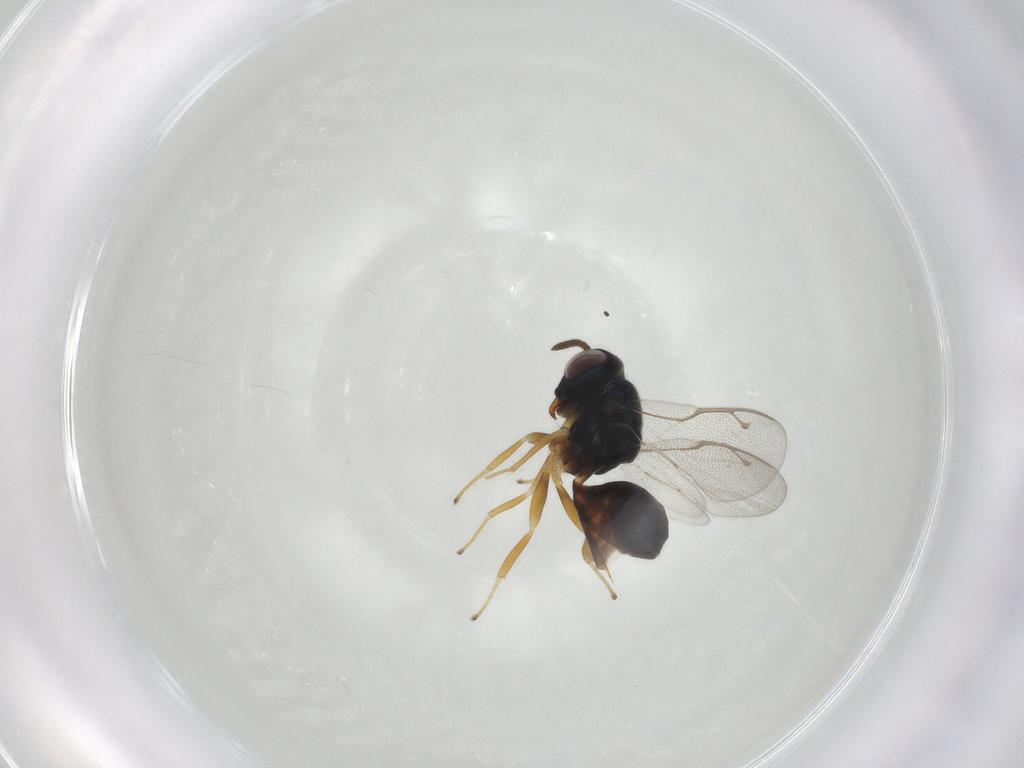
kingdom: Animalia
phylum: Arthropoda
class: Insecta
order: Hymenoptera
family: Pteromalidae
